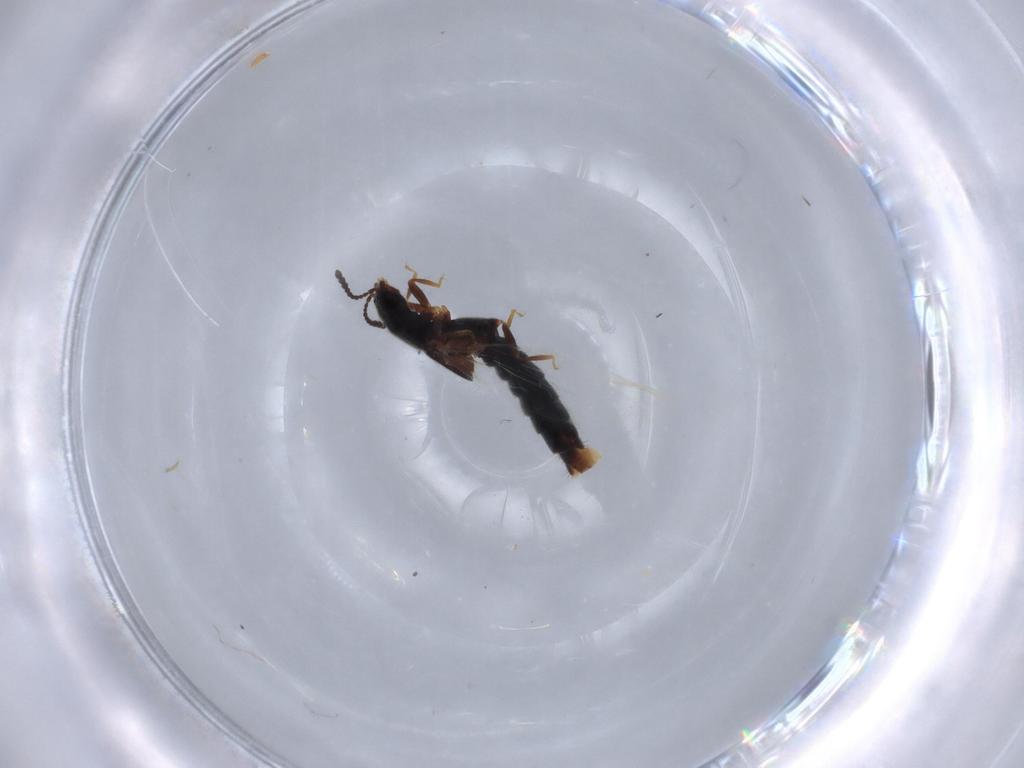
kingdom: Animalia
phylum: Arthropoda
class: Insecta
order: Coleoptera
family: Staphylinidae
